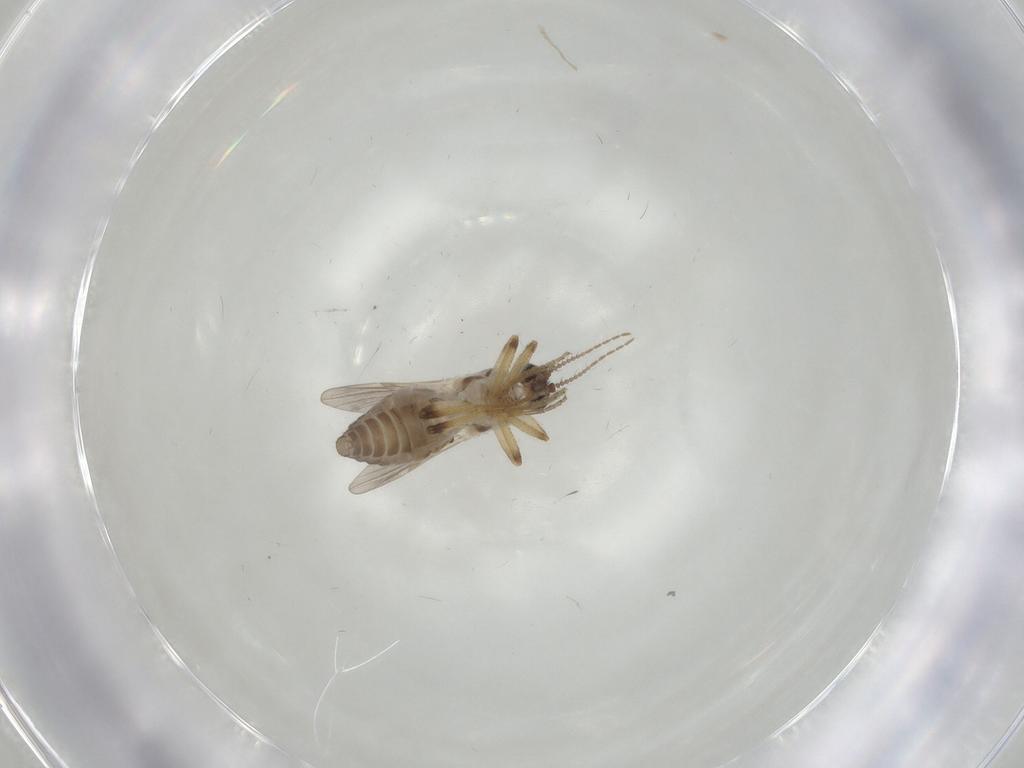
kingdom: Animalia
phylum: Arthropoda
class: Insecta
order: Diptera
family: Ceratopogonidae
